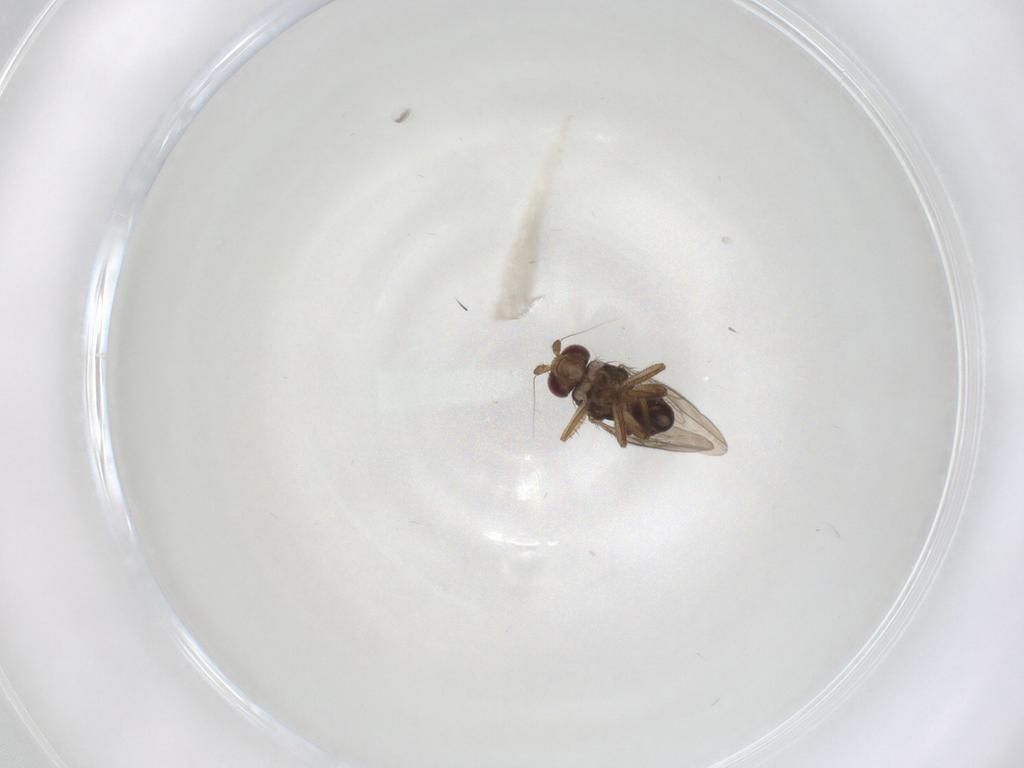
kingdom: Animalia
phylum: Arthropoda
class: Insecta
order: Diptera
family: Sphaeroceridae
